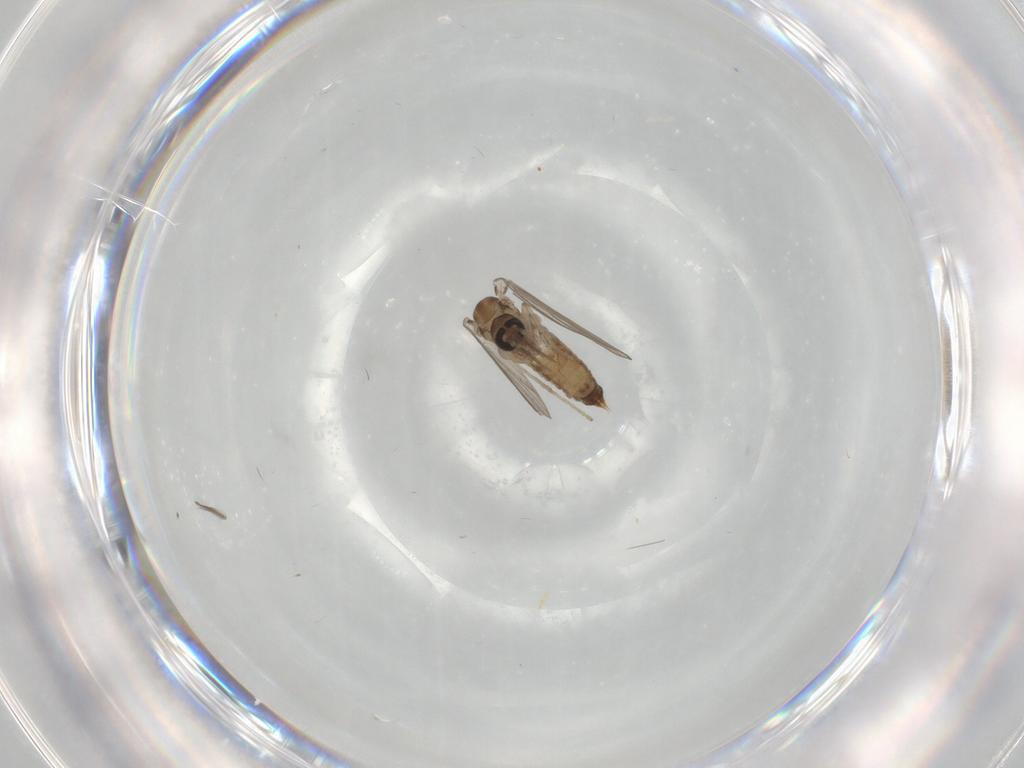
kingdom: Animalia
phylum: Arthropoda
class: Insecta
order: Diptera
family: Psychodidae
